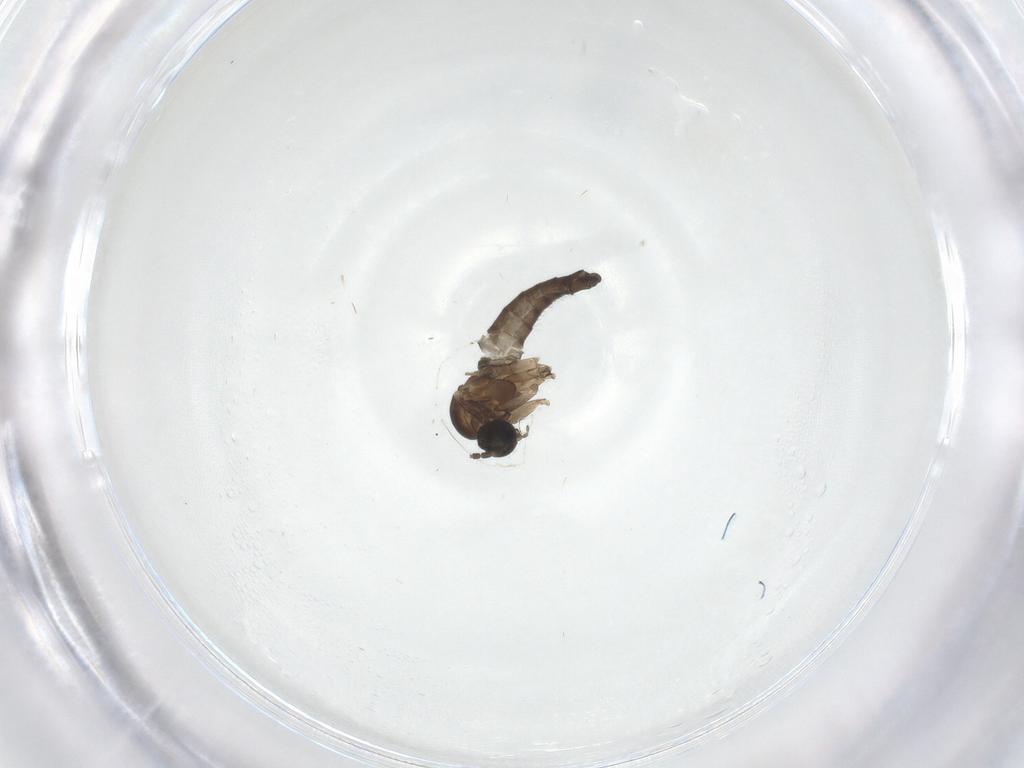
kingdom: Animalia
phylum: Arthropoda
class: Insecta
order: Diptera
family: Sciaridae
